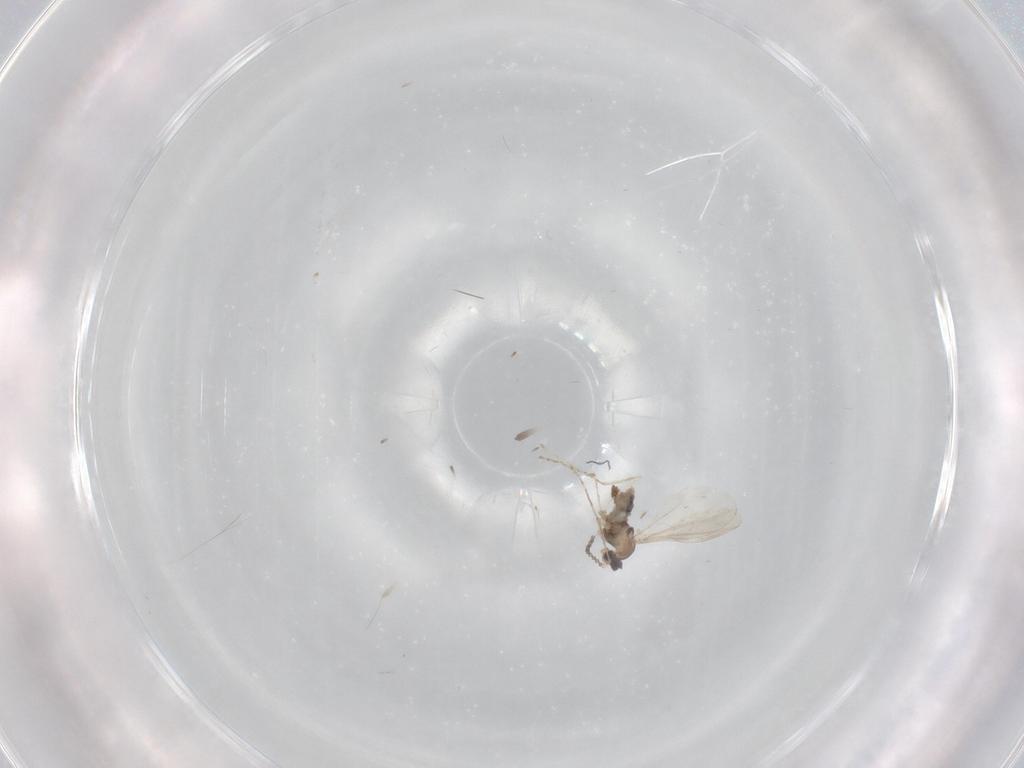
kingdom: Animalia
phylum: Arthropoda
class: Insecta
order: Diptera
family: Cecidomyiidae
